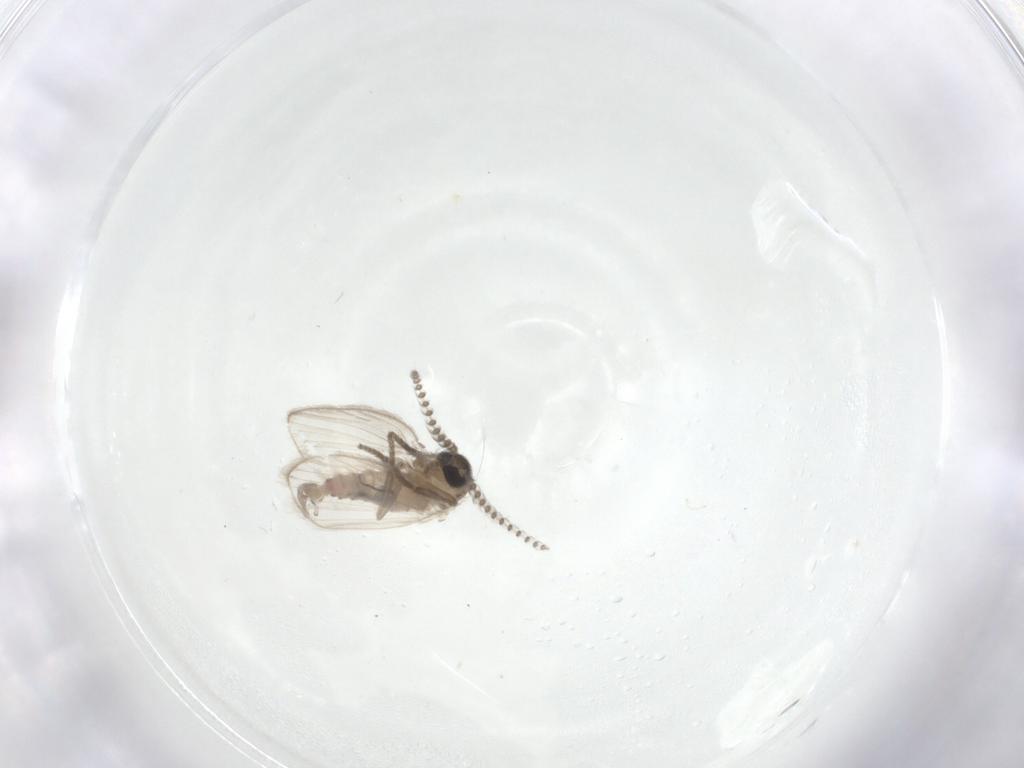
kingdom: Animalia
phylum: Arthropoda
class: Insecta
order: Diptera
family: Psychodidae
